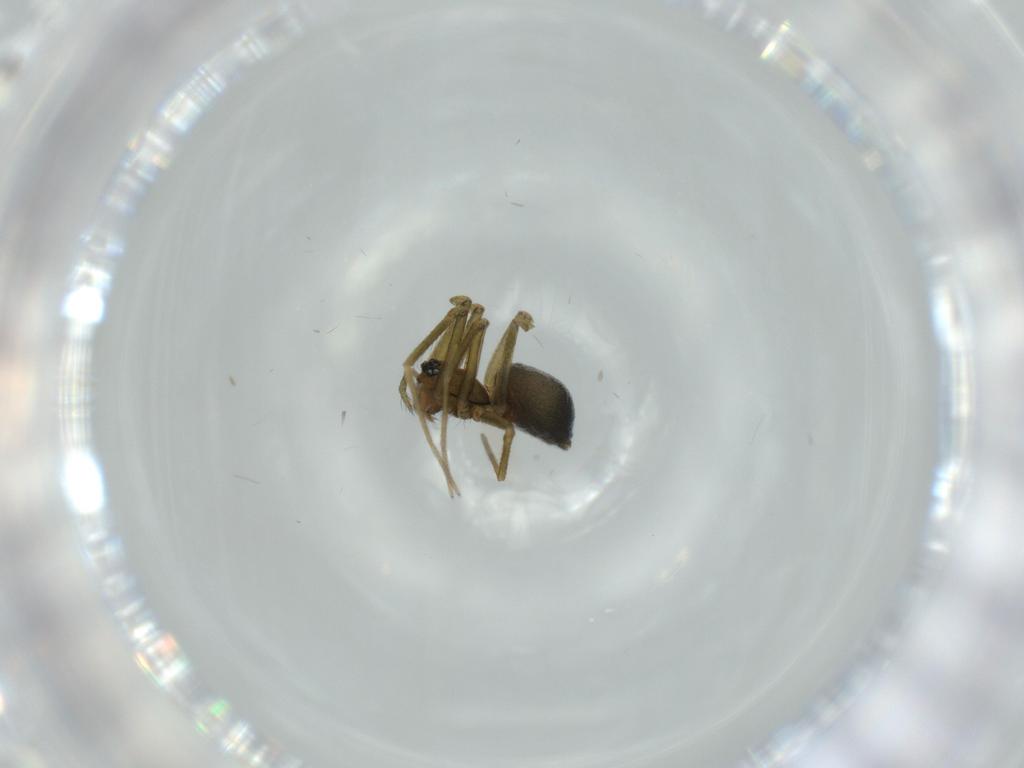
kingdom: Animalia
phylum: Arthropoda
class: Arachnida
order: Araneae
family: Linyphiidae
